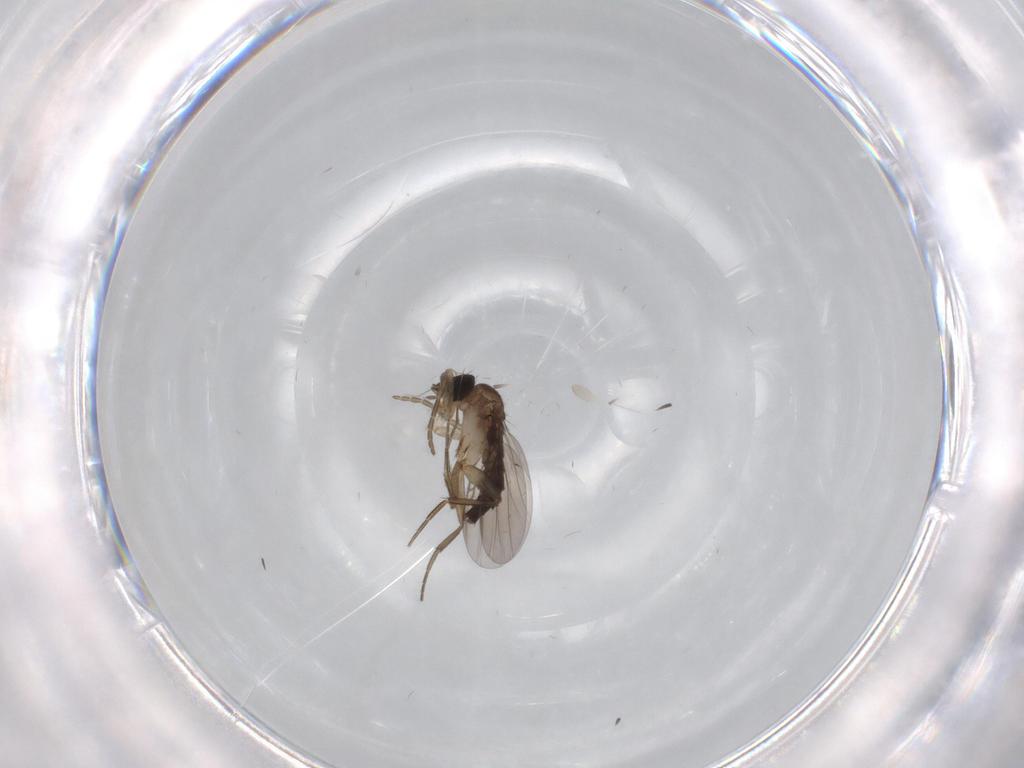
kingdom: Animalia
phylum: Arthropoda
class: Insecta
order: Diptera
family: Phoridae
